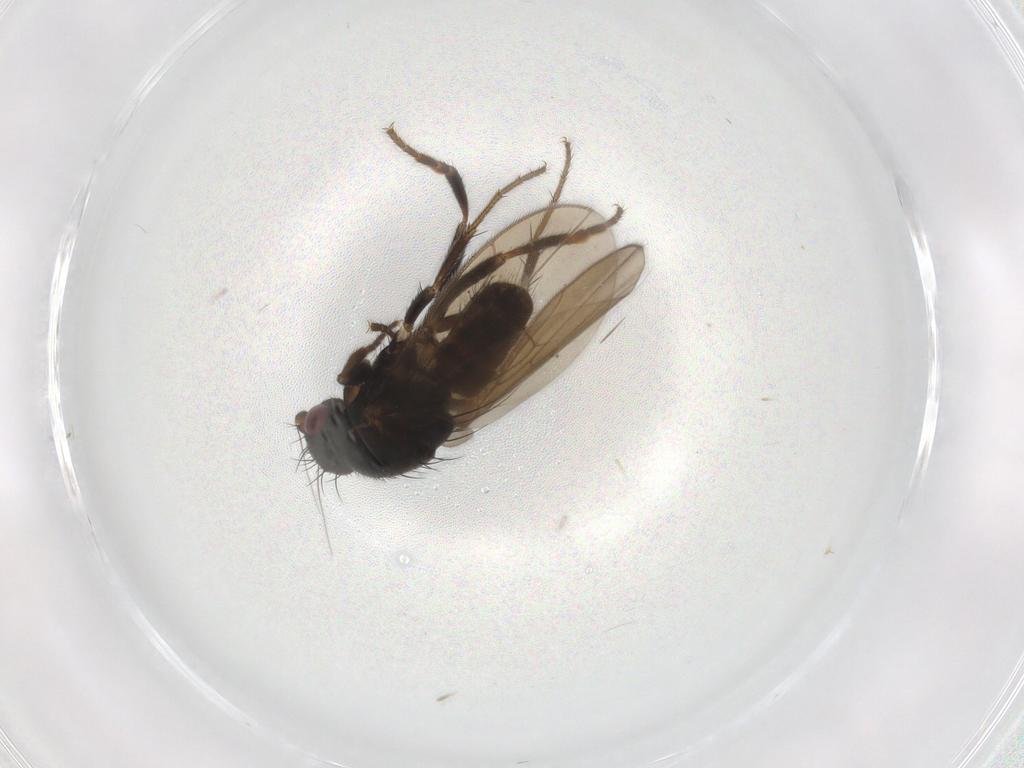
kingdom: Animalia
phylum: Arthropoda
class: Insecta
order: Diptera
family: Sphaeroceridae
